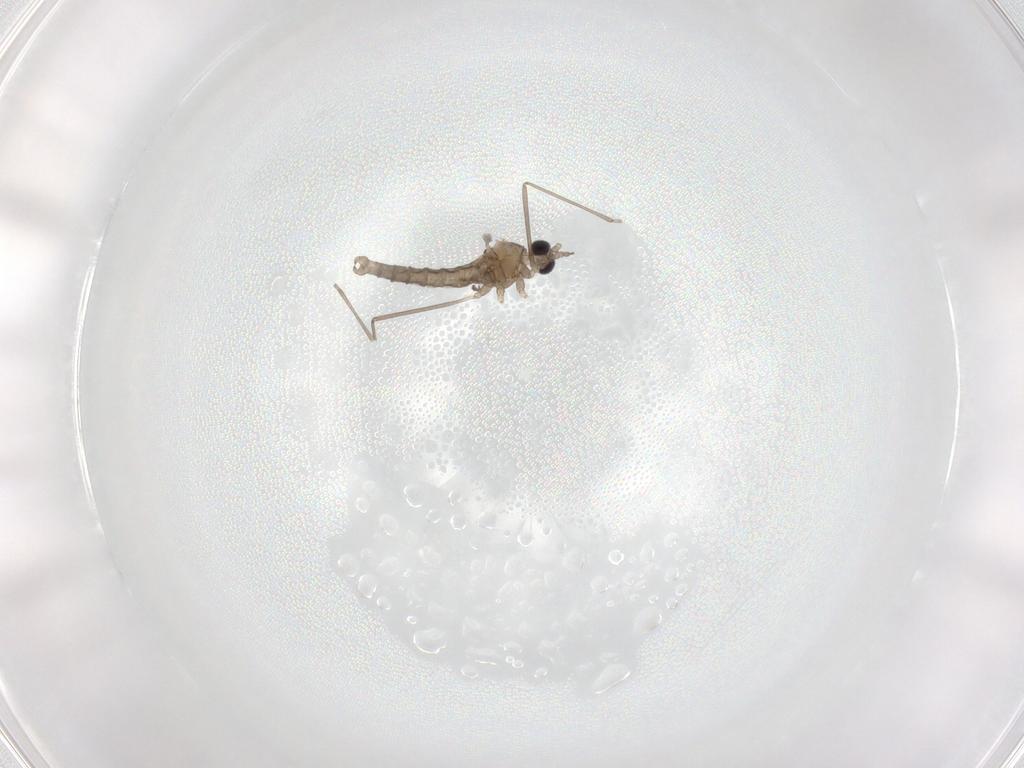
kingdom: Animalia
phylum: Arthropoda
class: Insecta
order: Diptera
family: Cecidomyiidae
